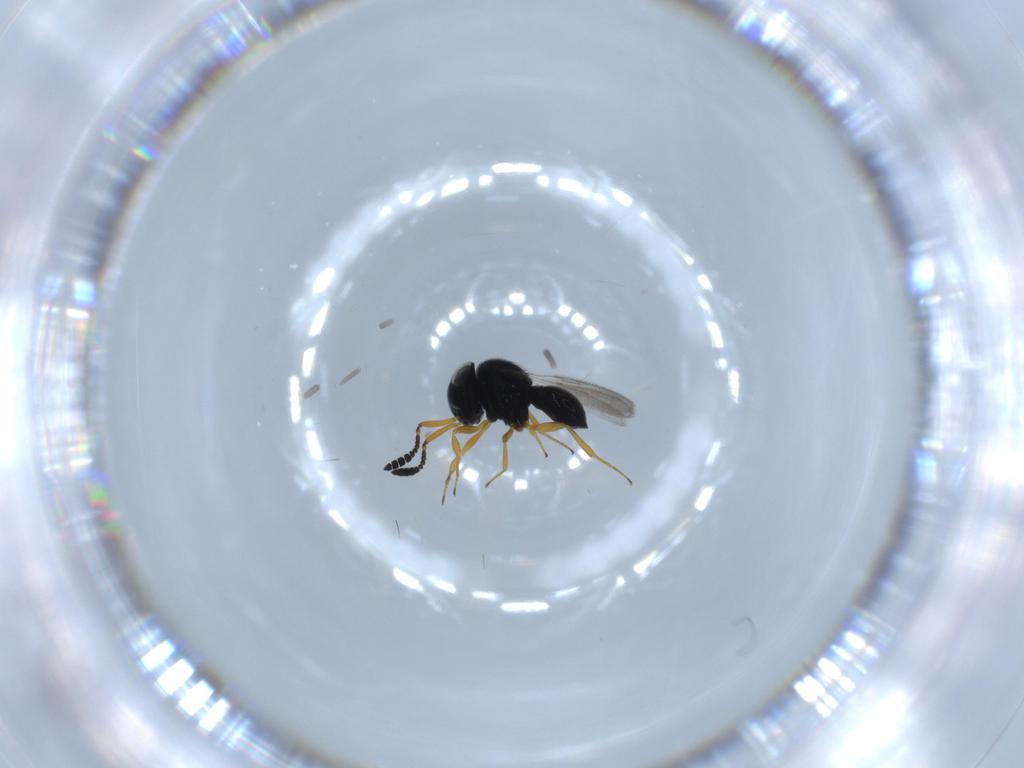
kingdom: Animalia
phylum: Arthropoda
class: Insecta
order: Hymenoptera
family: Scelionidae
